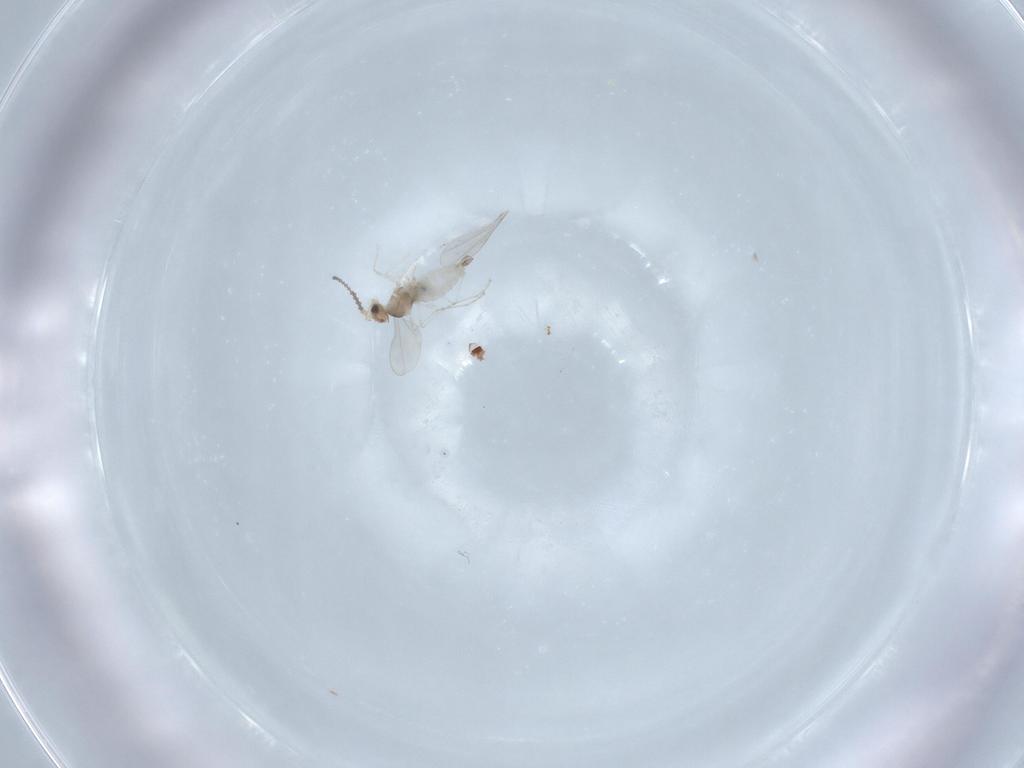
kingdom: Animalia
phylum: Arthropoda
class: Insecta
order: Diptera
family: Cecidomyiidae
